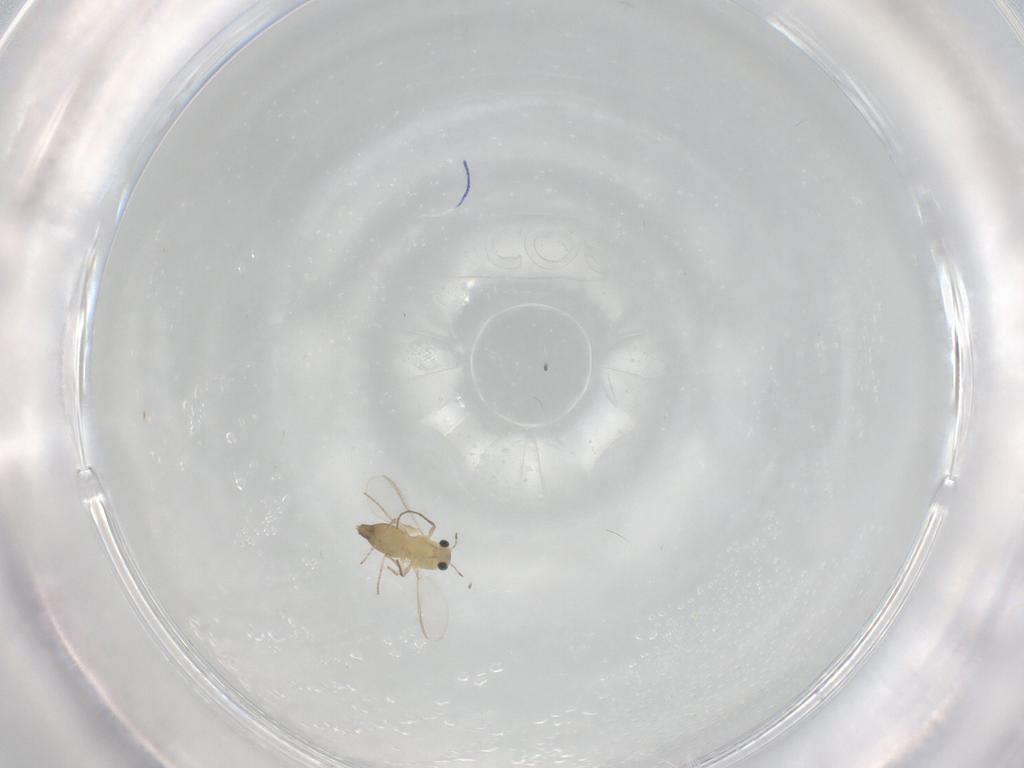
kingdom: Animalia
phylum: Arthropoda
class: Insecta
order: Diptera
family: Chironomidae
